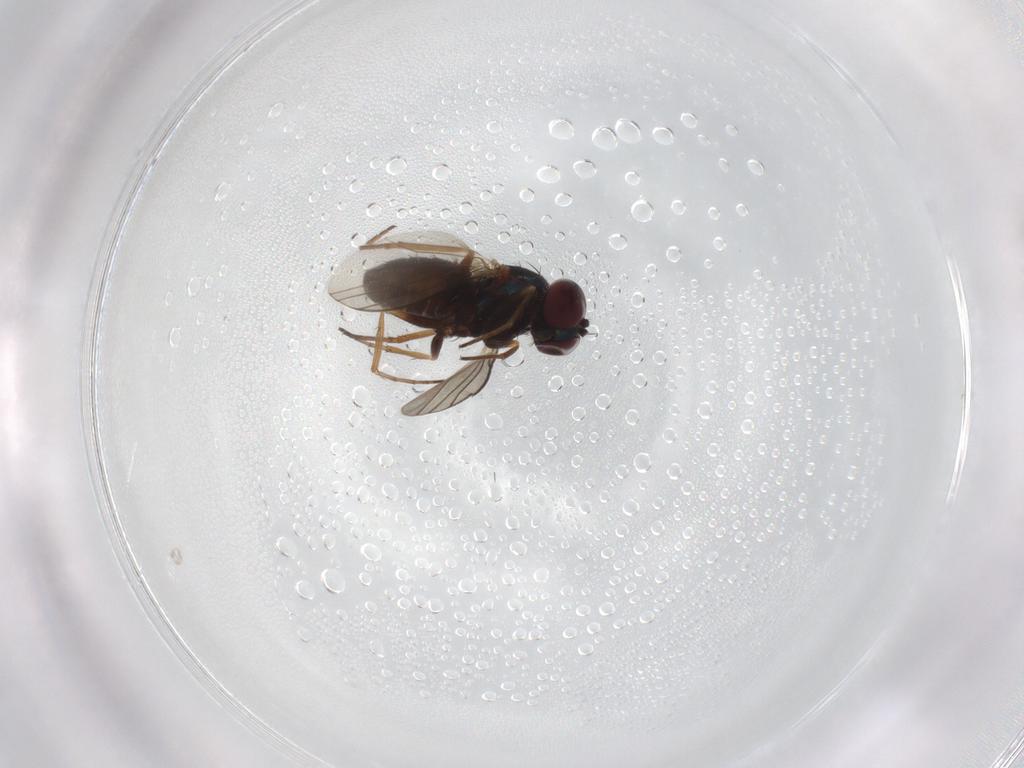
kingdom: Animalia
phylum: Arthropoda
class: Insecta
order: Diptera
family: Dolichopodidae
